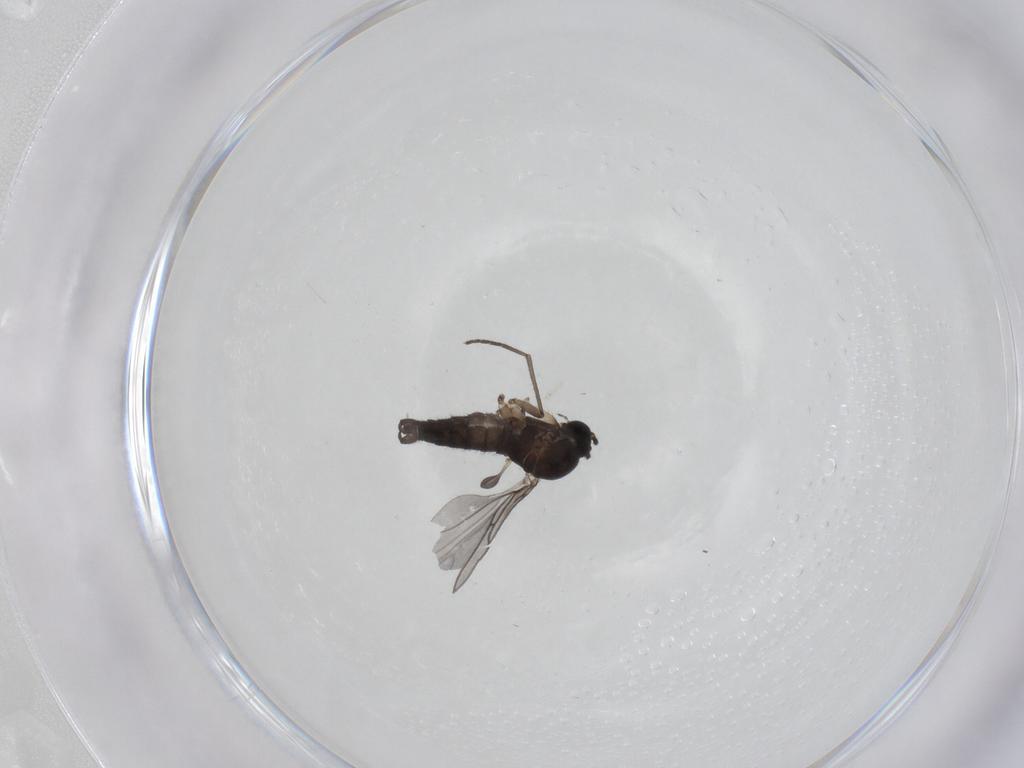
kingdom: Animalia
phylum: Arthropoda
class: Insecta
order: Diptera
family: Sciaridae
